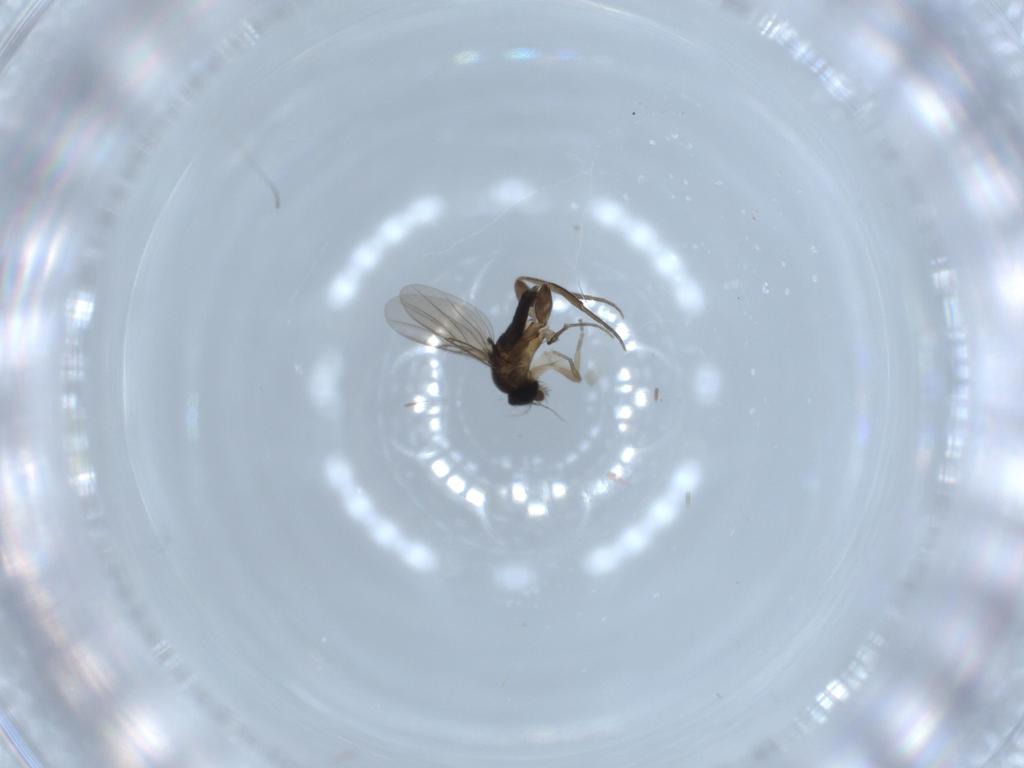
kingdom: Animalia
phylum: Arthropoda
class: Insecta
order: Diptera
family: Phoridae
